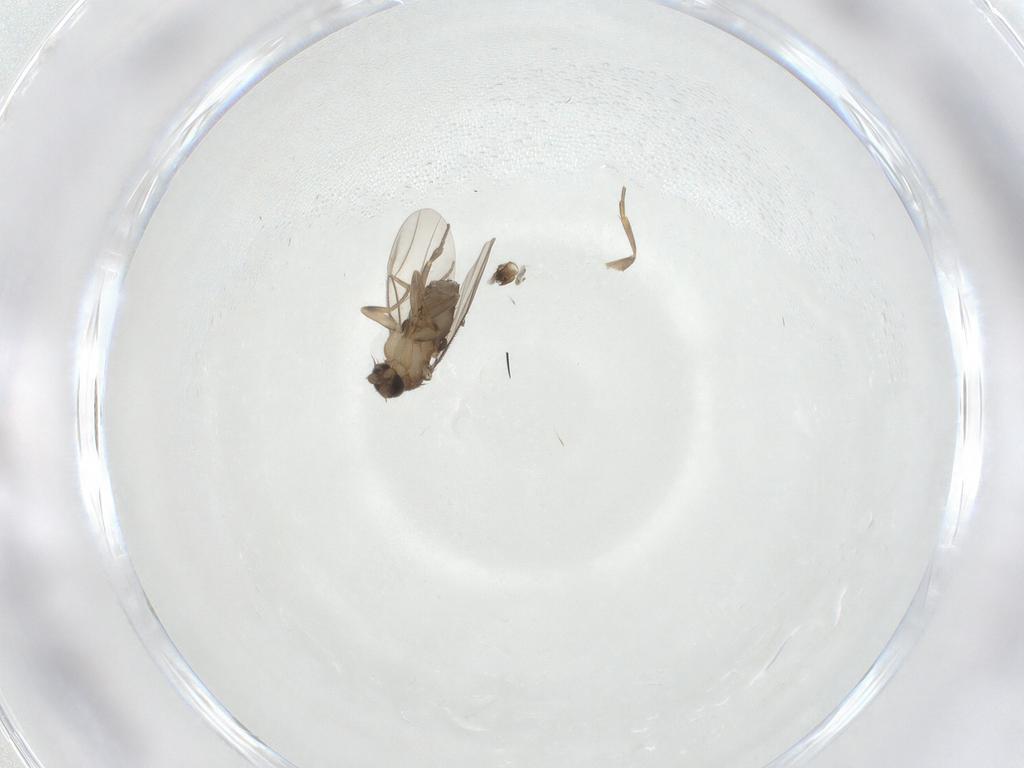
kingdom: Animalia
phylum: Arthropoda
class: Insecta
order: Diptera
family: Phoridae
